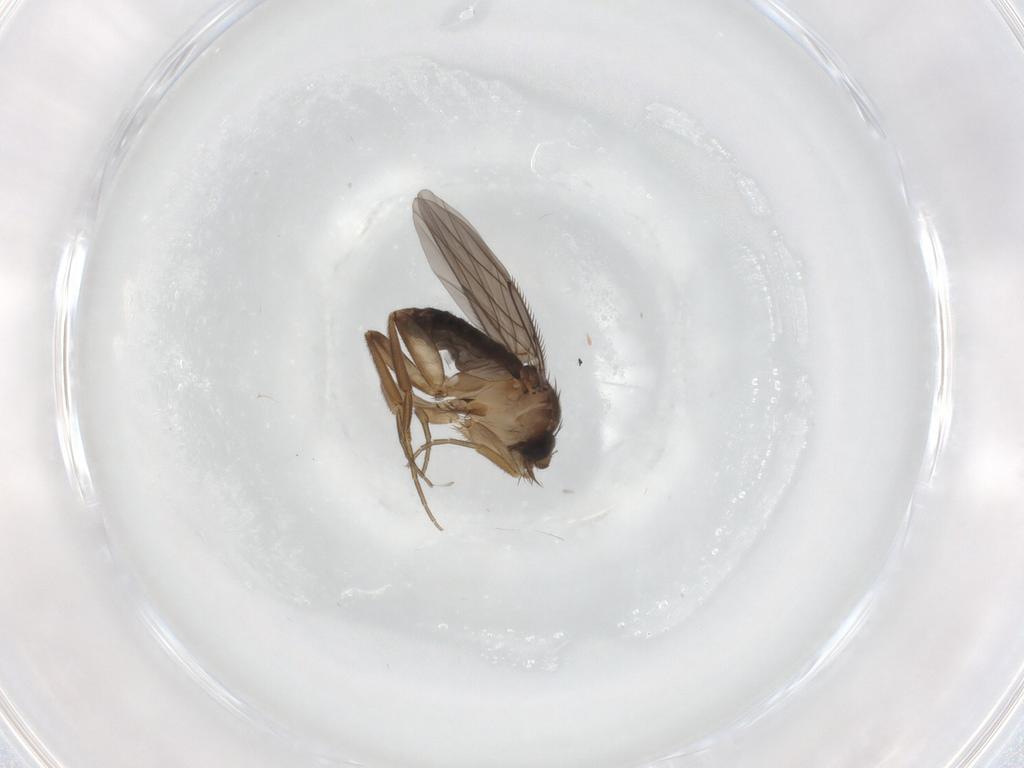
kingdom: Animalia
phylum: Arthropoda
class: Insecta
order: Diptera
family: Phoridae
